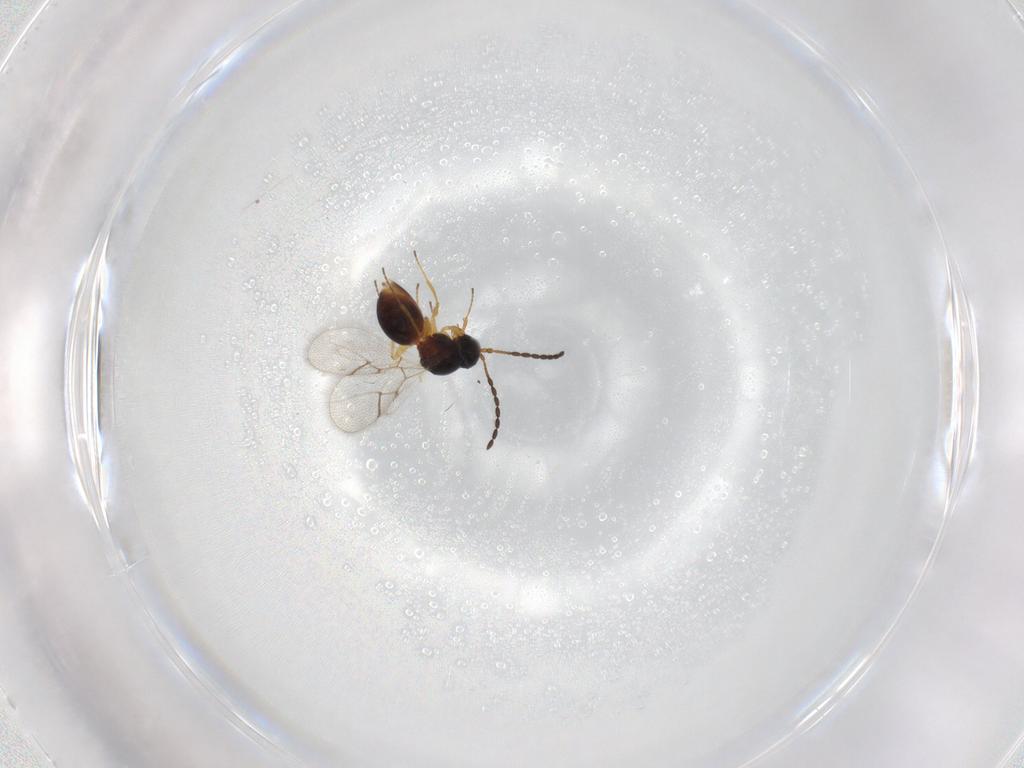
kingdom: Animalia
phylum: Arthropoda
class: Insecta
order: Hymenoptera
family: Figitidae
